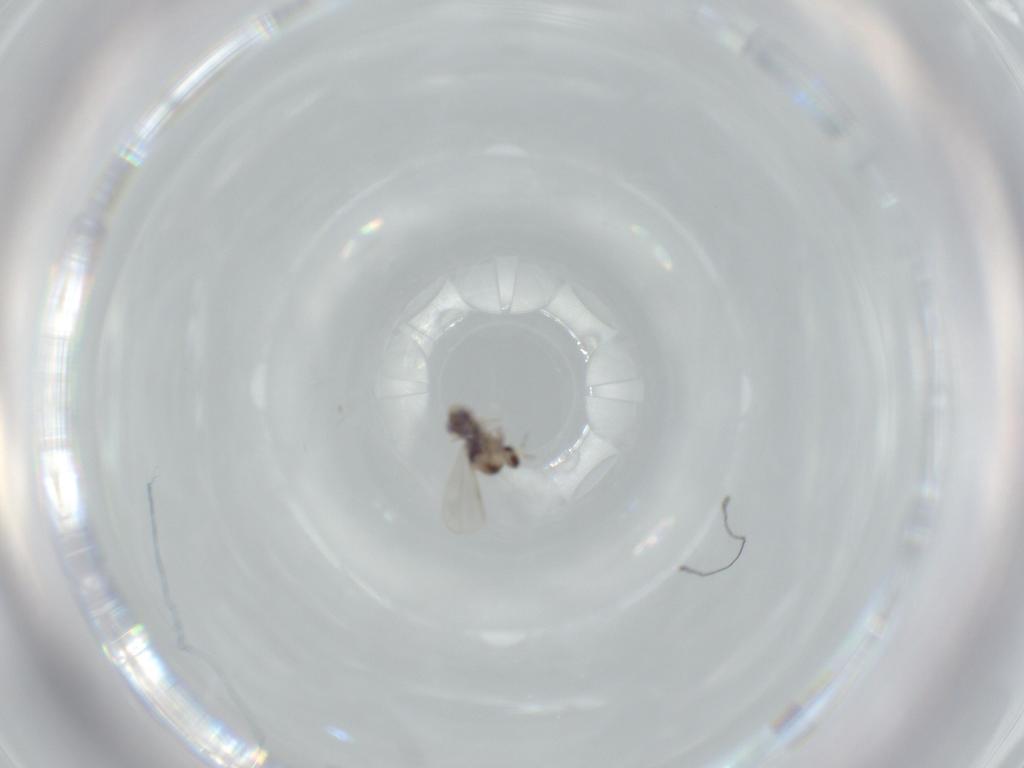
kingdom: Animalia
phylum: Arthropoda
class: Insecta
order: Diptera
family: Cecidomyiidae
